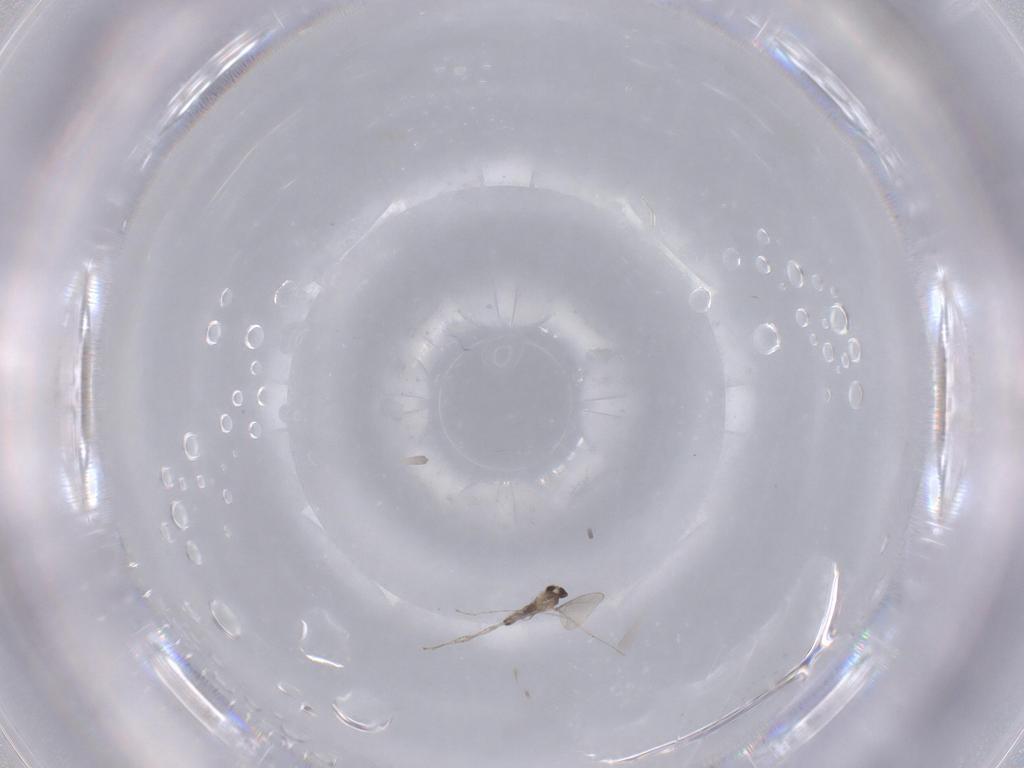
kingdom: Animalia
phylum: Arthropoda
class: Insecta
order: Diptera
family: Cecidomyiidae
